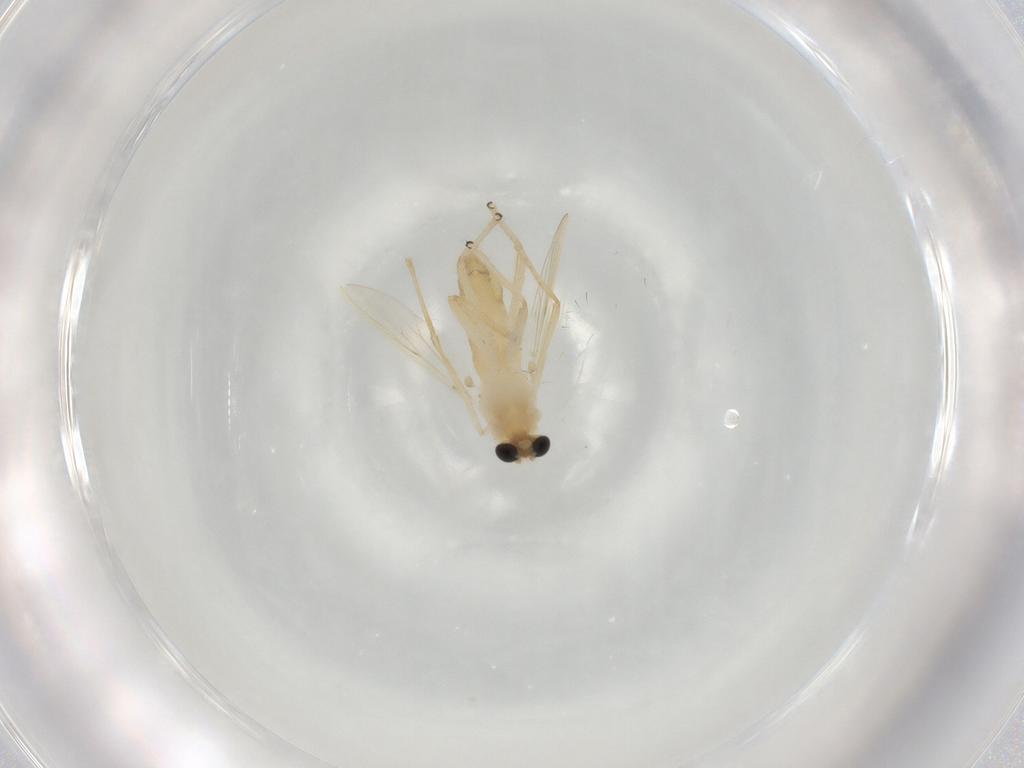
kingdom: Animalia
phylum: Arthropoda
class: Insecta
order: Diptera
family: Chironomidae
